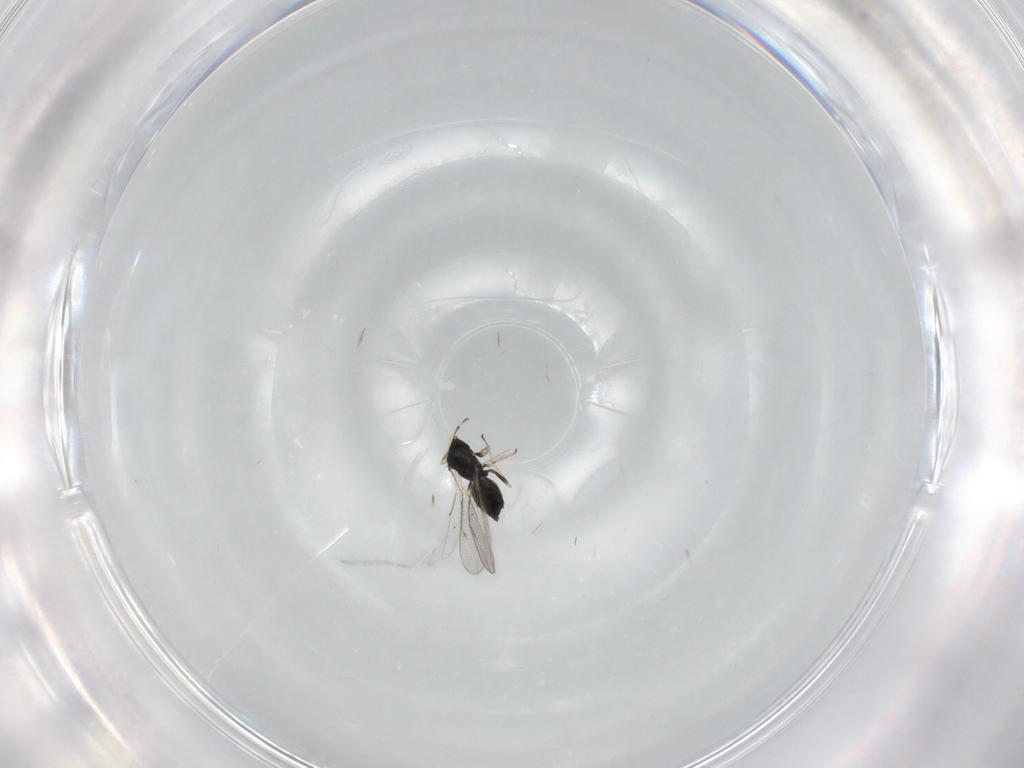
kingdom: Animalia
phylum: Arthropoda
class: Insecta
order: Hymenoptera
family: Eulophidae
